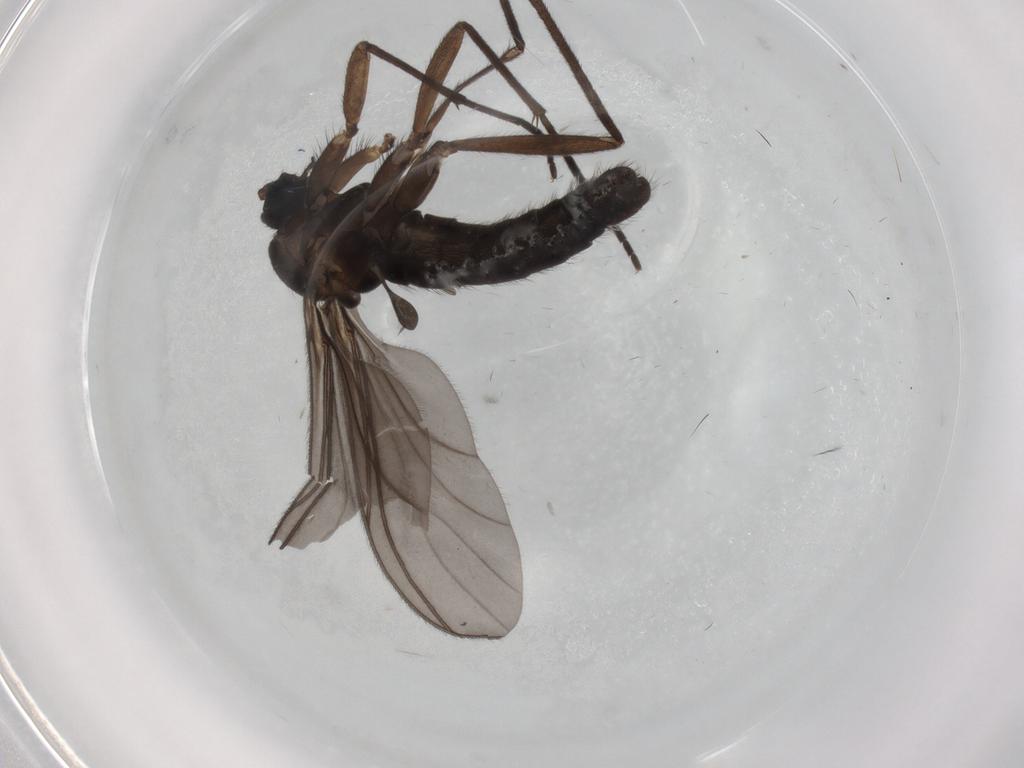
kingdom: Animalia
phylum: Arthropoda
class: Insecta
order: Diptera
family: Sciaridae
